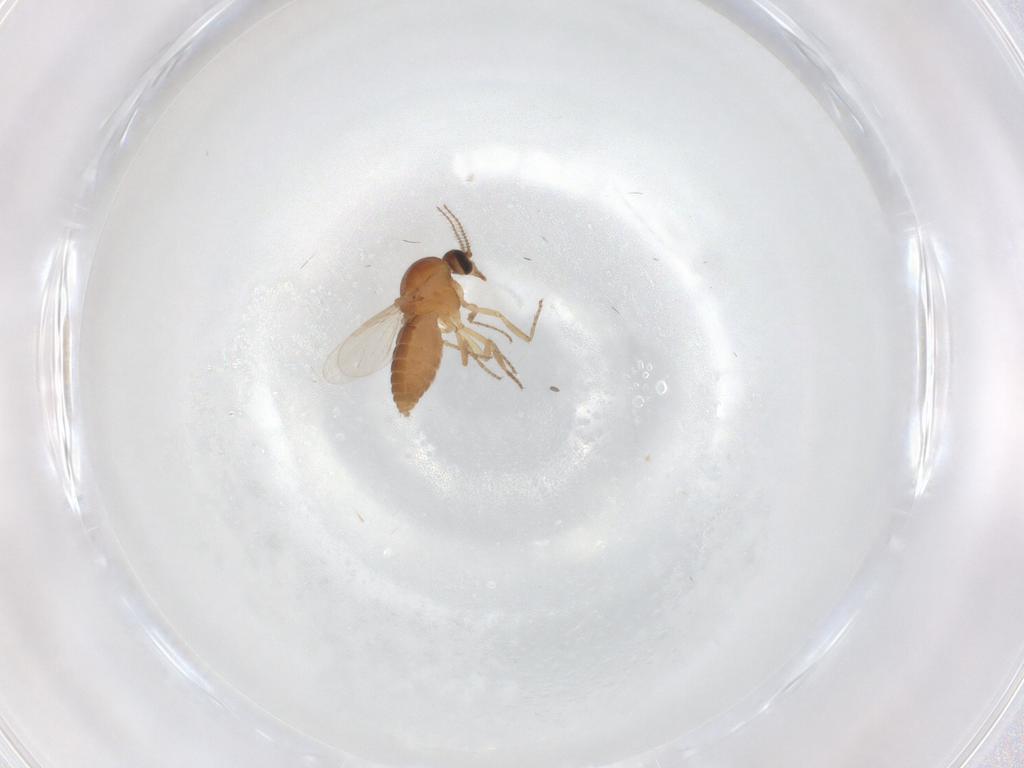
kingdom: Animalia
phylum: Arthropoda
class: Insecta
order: Diptera
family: Ceratopogonidae
